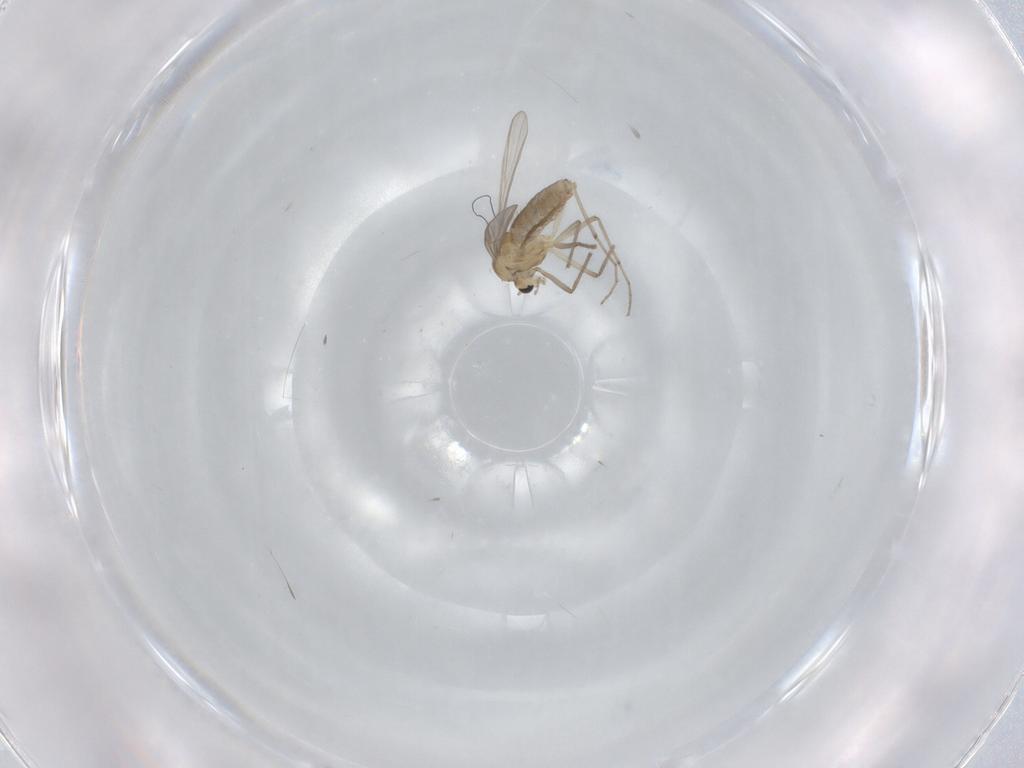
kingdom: Animalia
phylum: Arthropoda
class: Insecta
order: Diptera
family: Chironomidae
